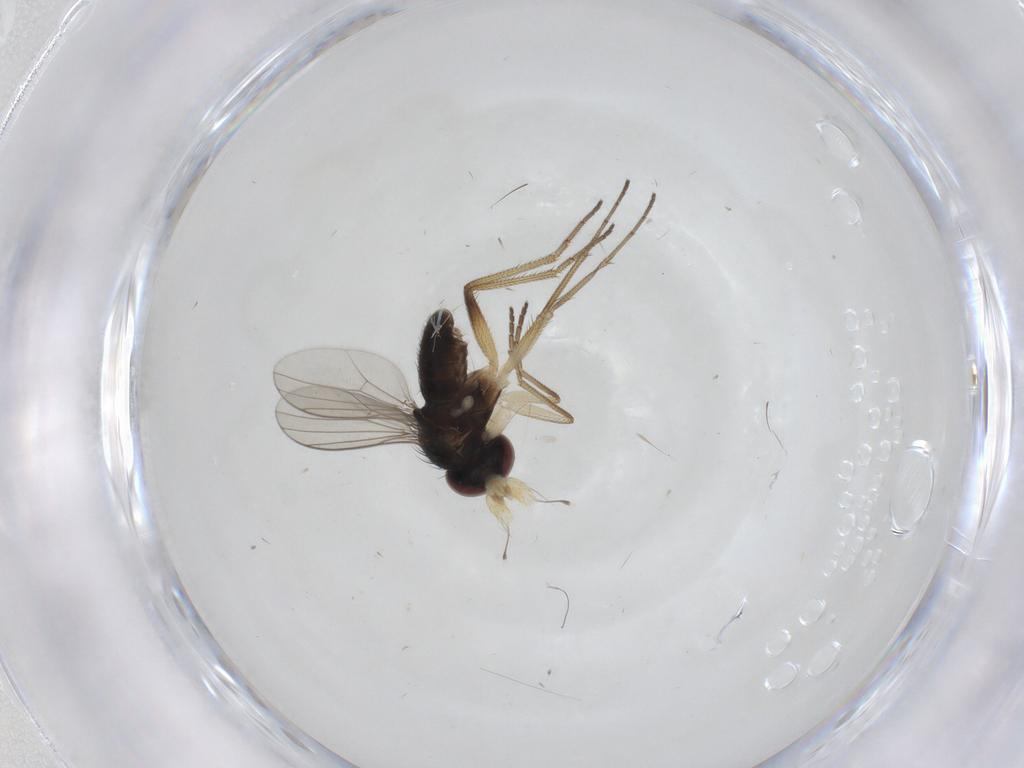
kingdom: Animalia
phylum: Arthropoda
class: Insecta
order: Diptera
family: Dolichopodidae
